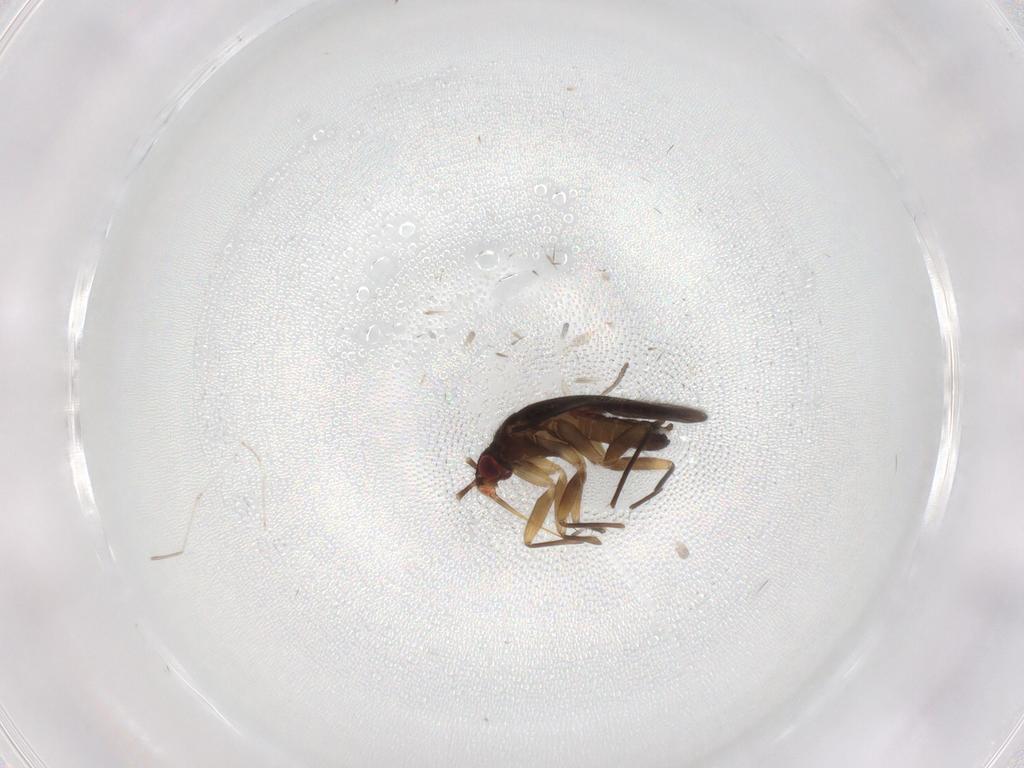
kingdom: Animalia
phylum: Arthropoda
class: Insecta
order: Hemiptera
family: Ceratocombidae
